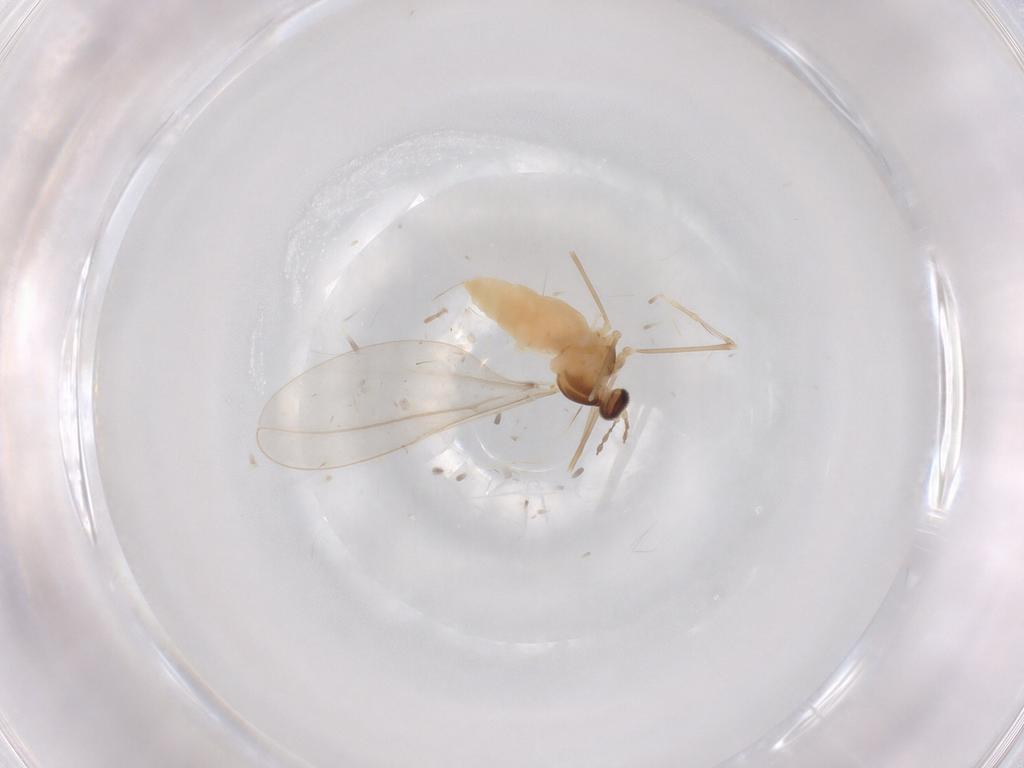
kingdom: Animalia
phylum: Arthropoda
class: Insecta
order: Diptera
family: Cecidomyiidae
